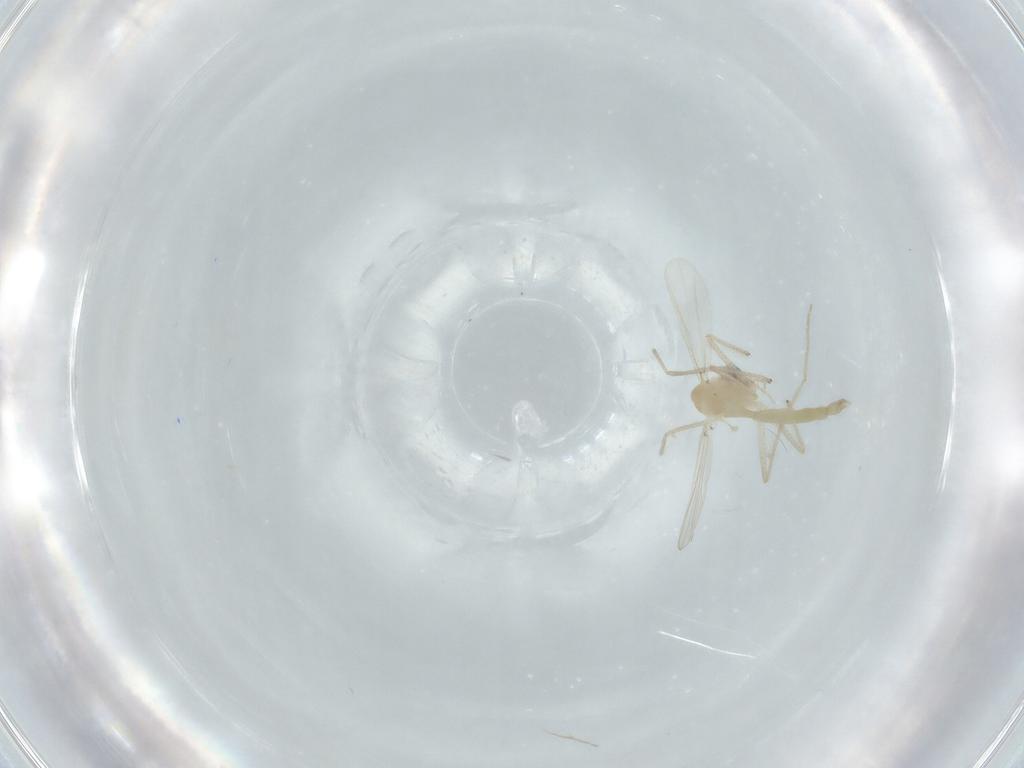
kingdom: Animalia
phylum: Arthropoda
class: Insecta
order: Diptera
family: Chironomidae
